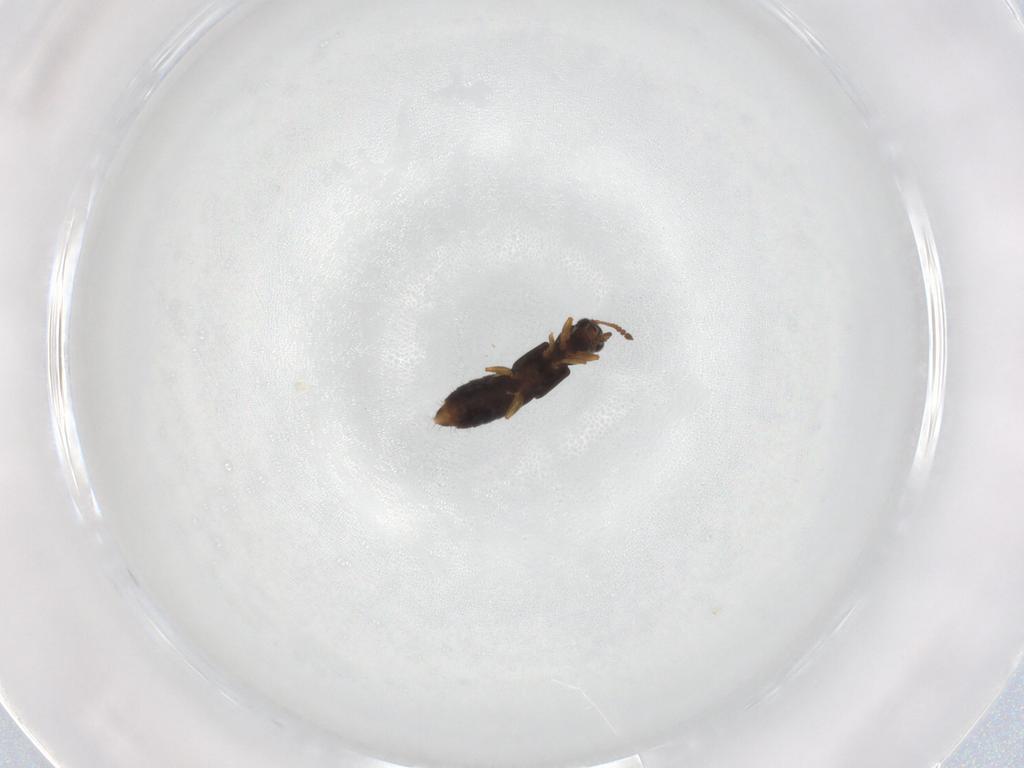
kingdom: Animalia
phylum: Arthropoda
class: Insecta
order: Coleoptera
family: Staphylinidae
